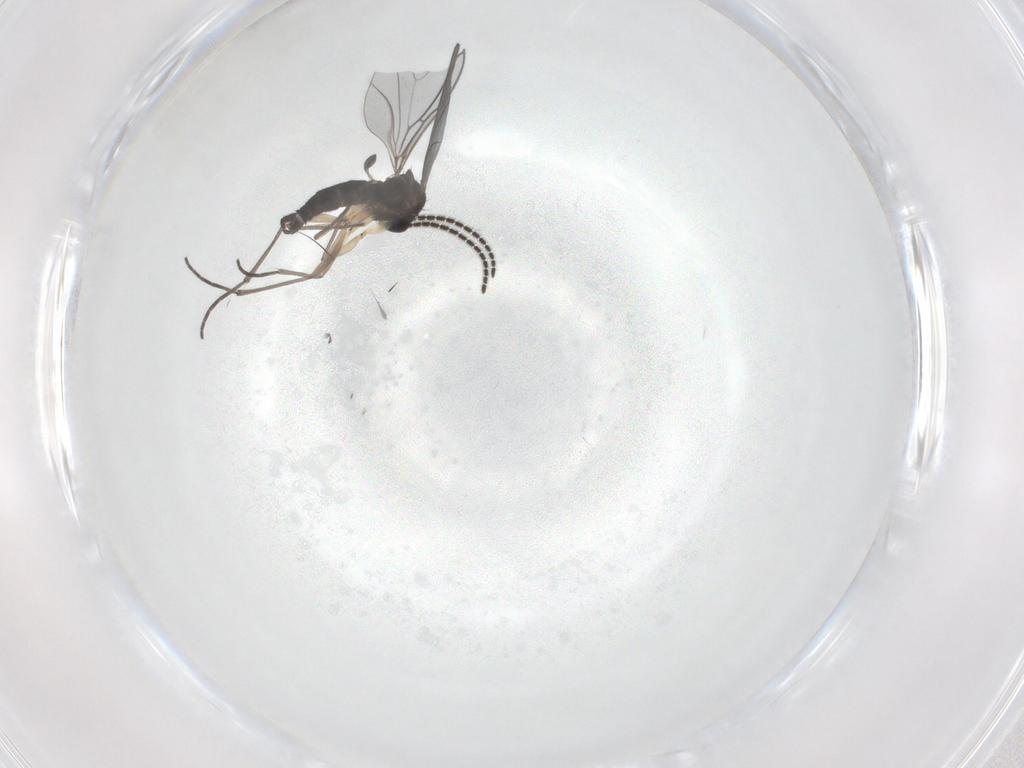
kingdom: Animalia
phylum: Arthropoda
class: Insecta
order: Diptera
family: Sciaridae
